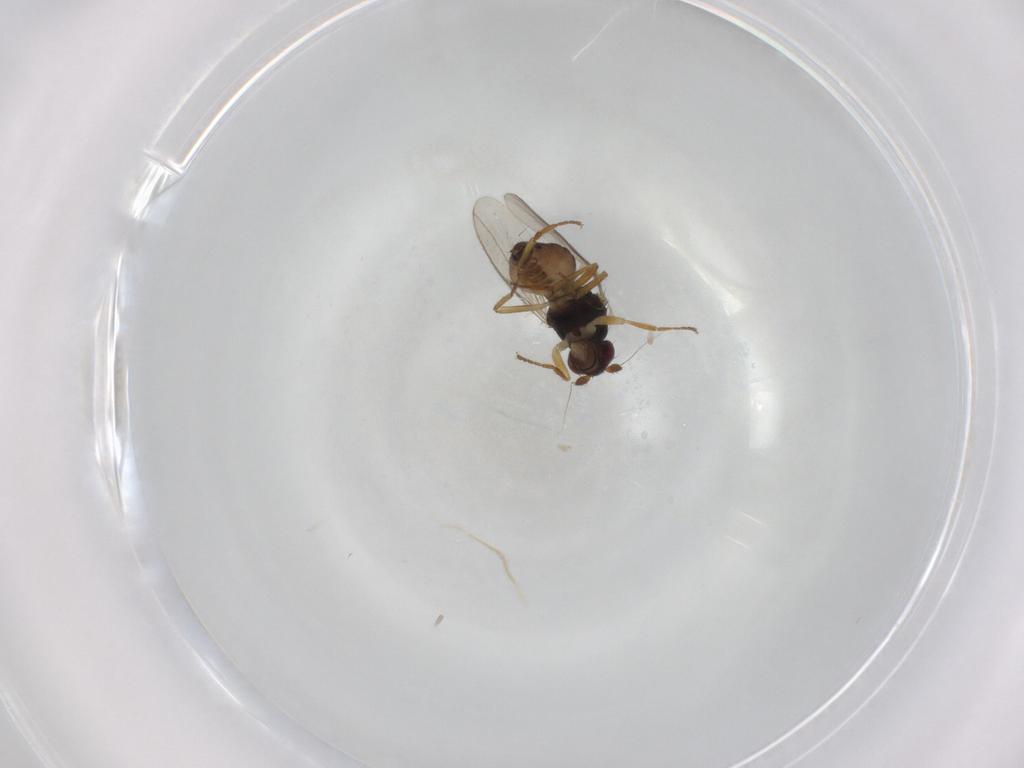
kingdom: Animalia
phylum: Arthropoda
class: Insecta
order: Diptera
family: Sphaeroceridae
